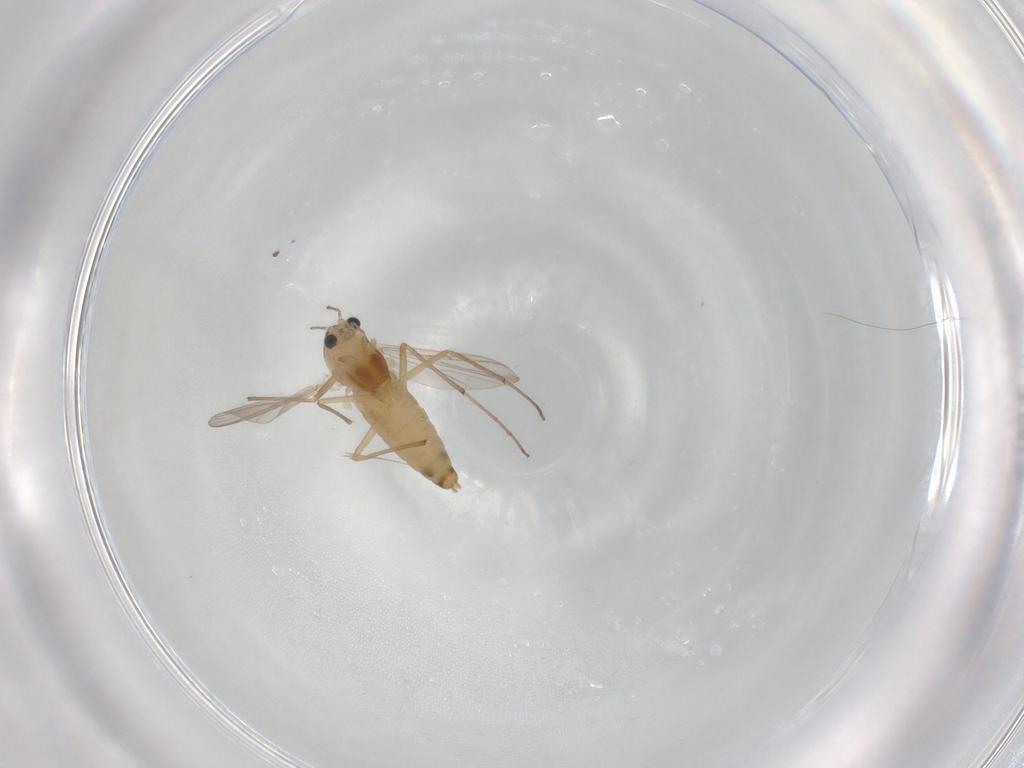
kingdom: Animalia
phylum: Arthropoda
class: Insecta
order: Diptera
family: Chironomidae
